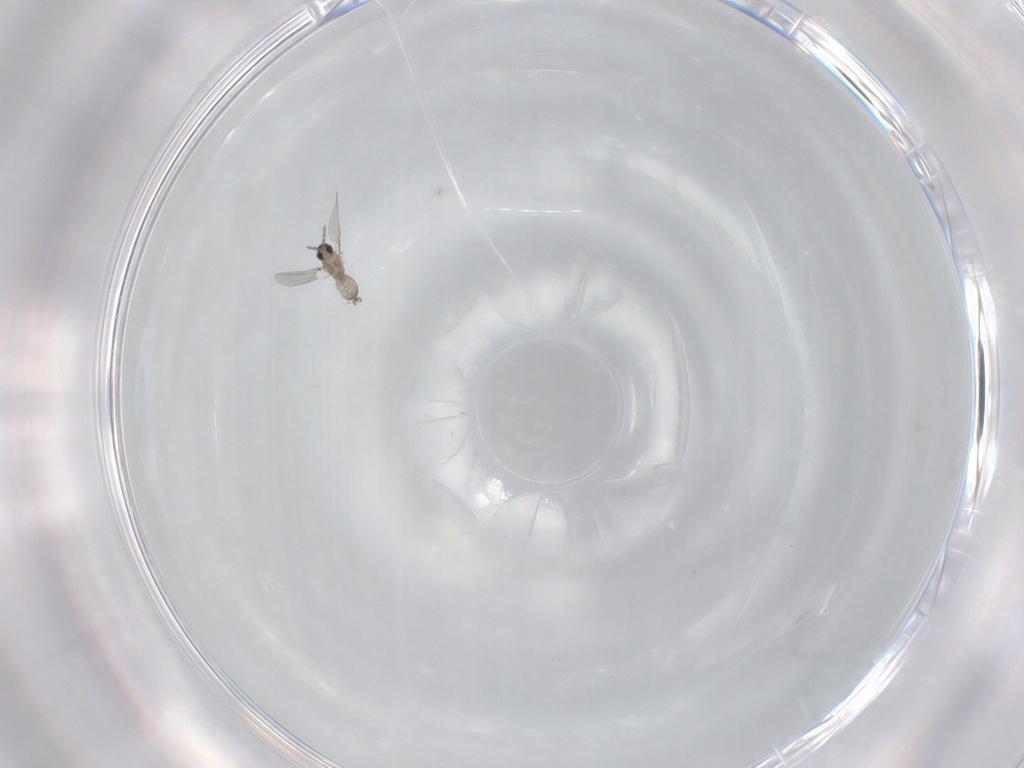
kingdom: Animalia
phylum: Arthropoda
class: Insecta
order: Diptera
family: Cecidomyiidae
